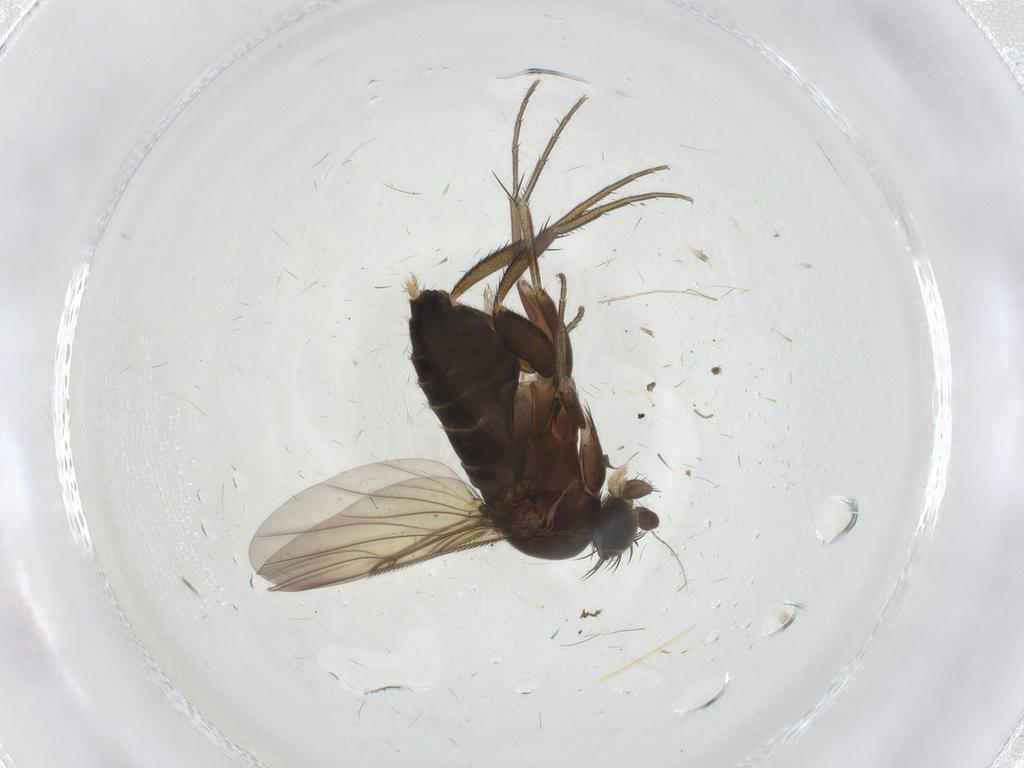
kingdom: Animalia
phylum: Arthropoda
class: Insecta
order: Diptera
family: Phoridae
